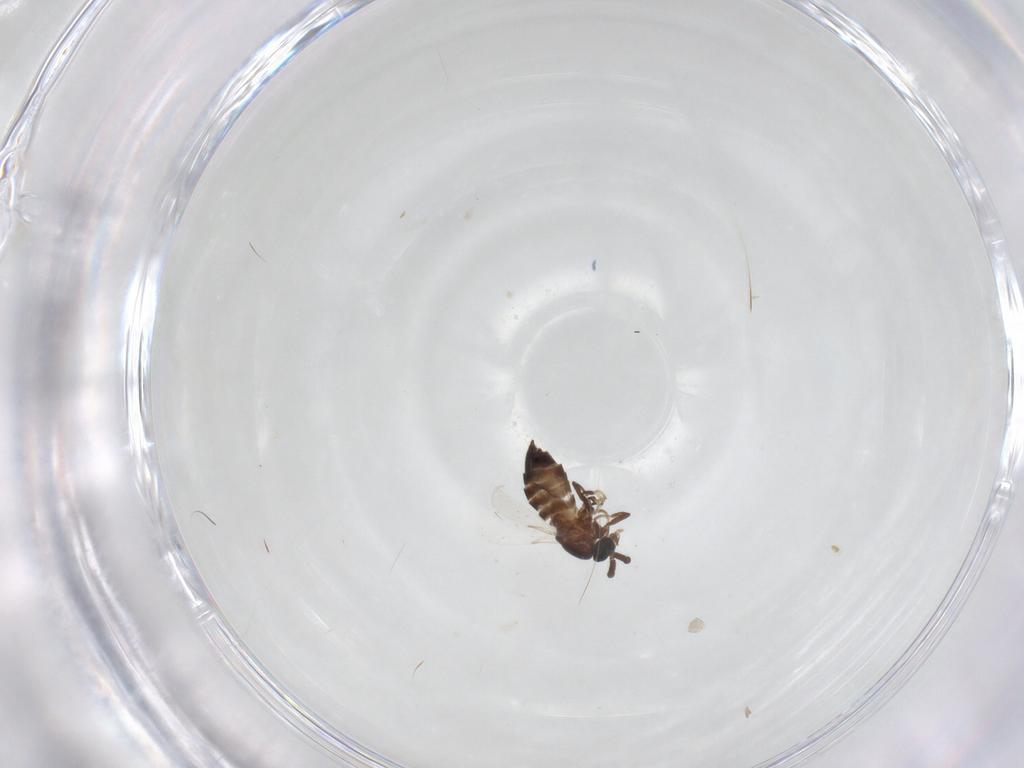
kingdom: Animalia
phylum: Arthropoda
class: Insecta
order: Diptera
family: Scatopsidae
